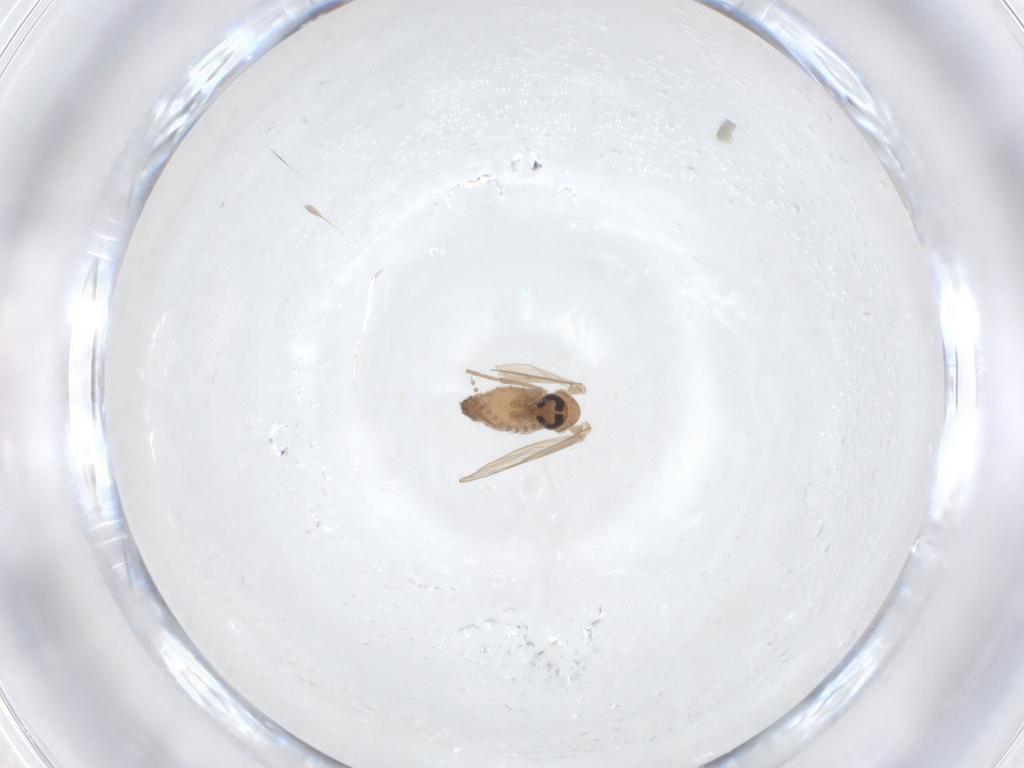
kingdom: Animalia
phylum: Arthropoda
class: Insecta
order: Diptera
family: Psychodidae
